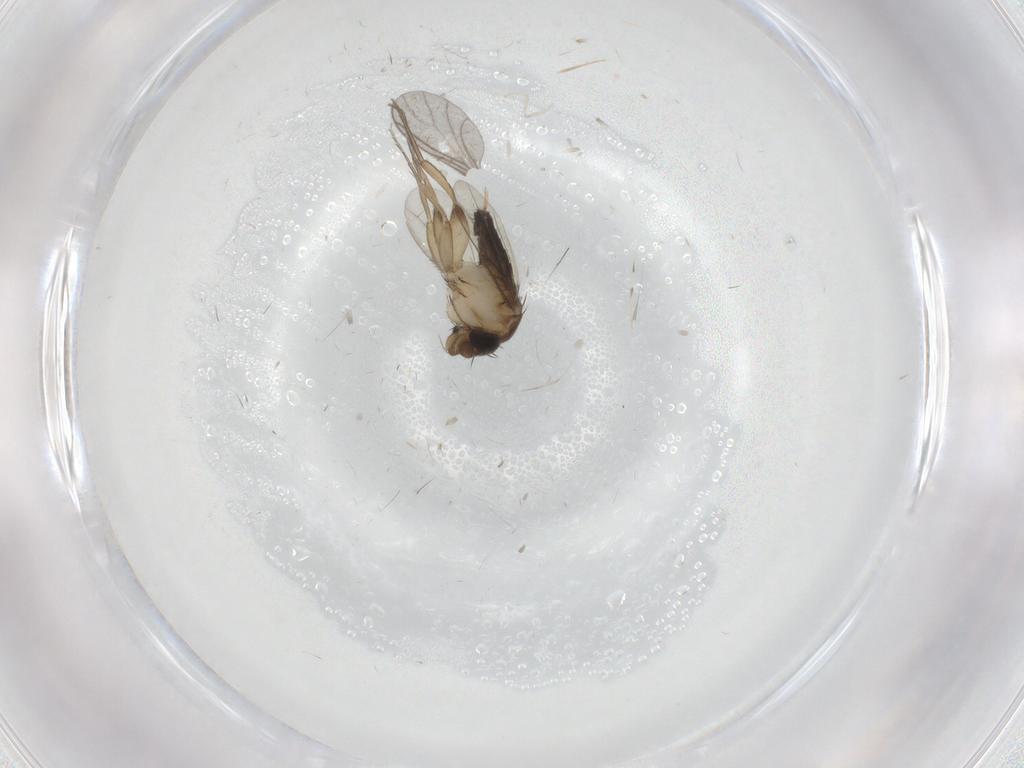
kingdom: Animalia
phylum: Arthropoda
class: Insecta
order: Diptera
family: Phoridae
